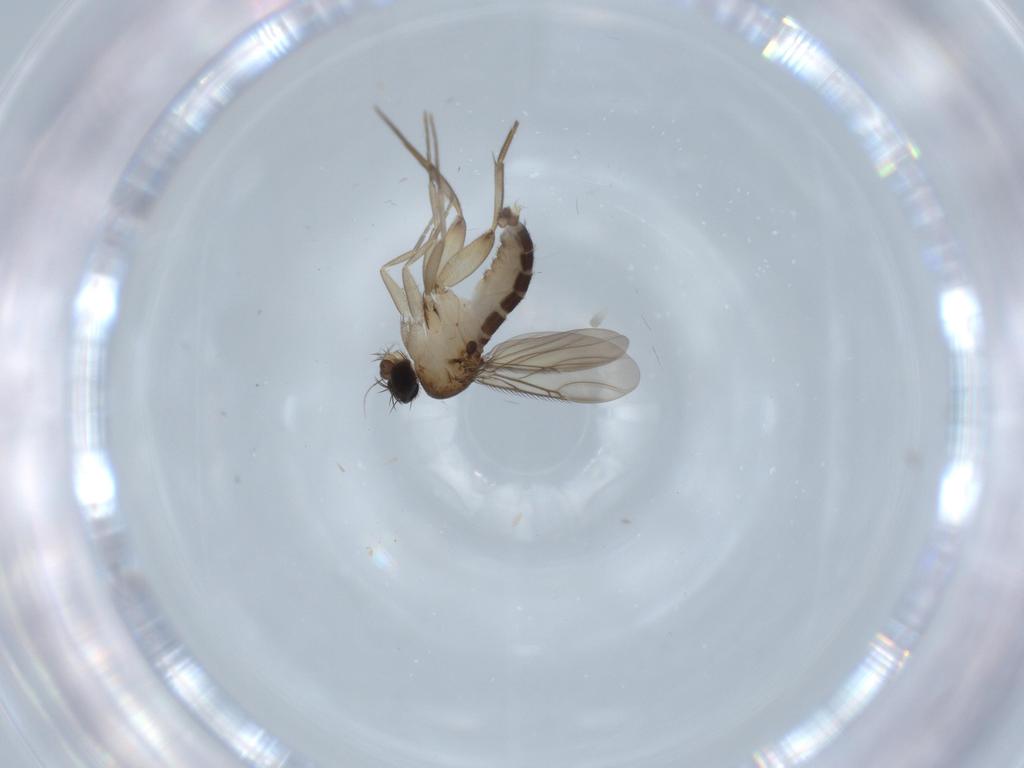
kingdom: Animalia
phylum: Arthropoda
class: Insecta
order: Diptera
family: Phoridae
